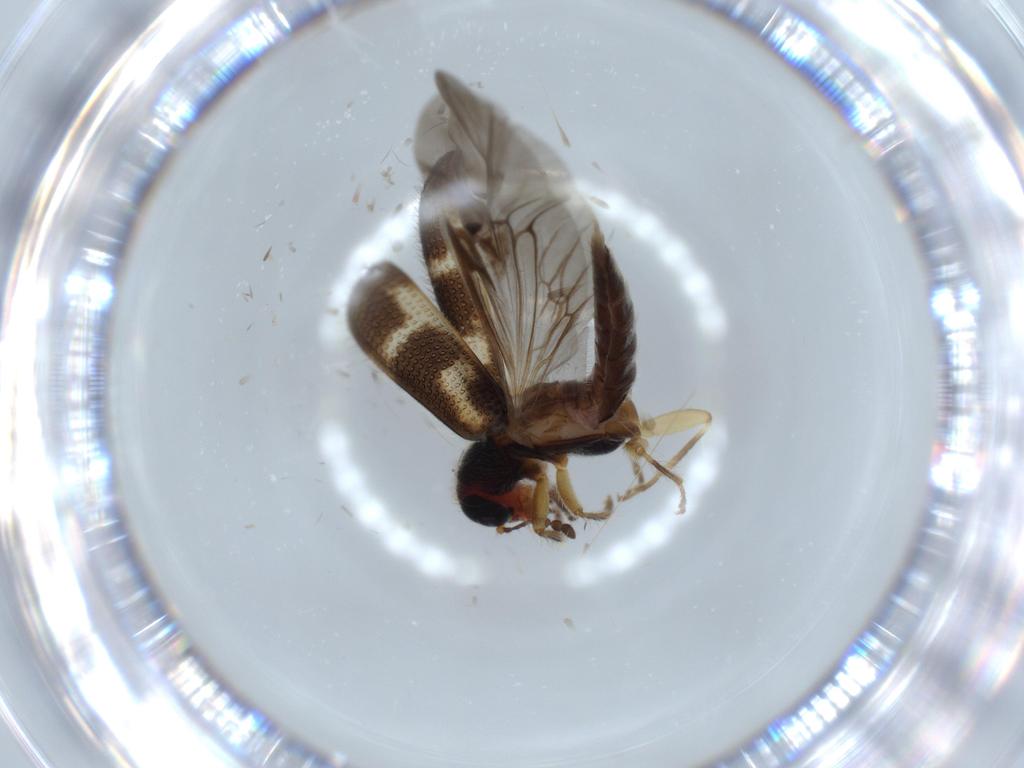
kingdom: Animalia
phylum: Arthropoda
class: Insecta
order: Coleoptera
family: Cleridae
